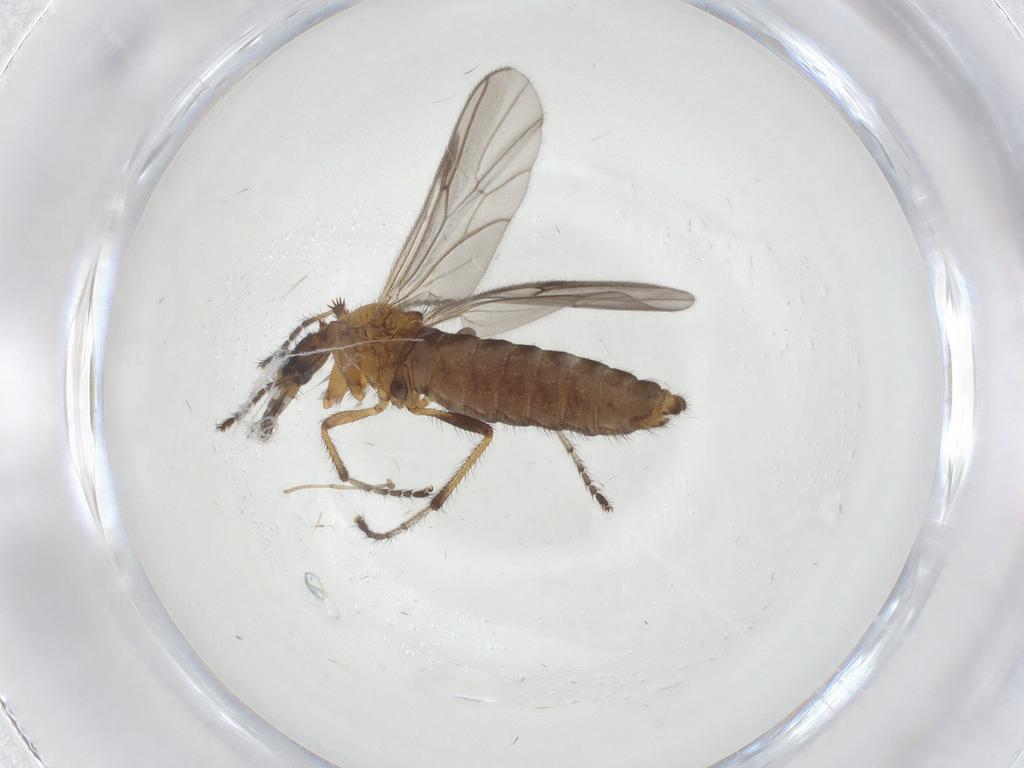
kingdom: Animalia
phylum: Arthropoda
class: Insecta
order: Diptera
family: Bibionidae
